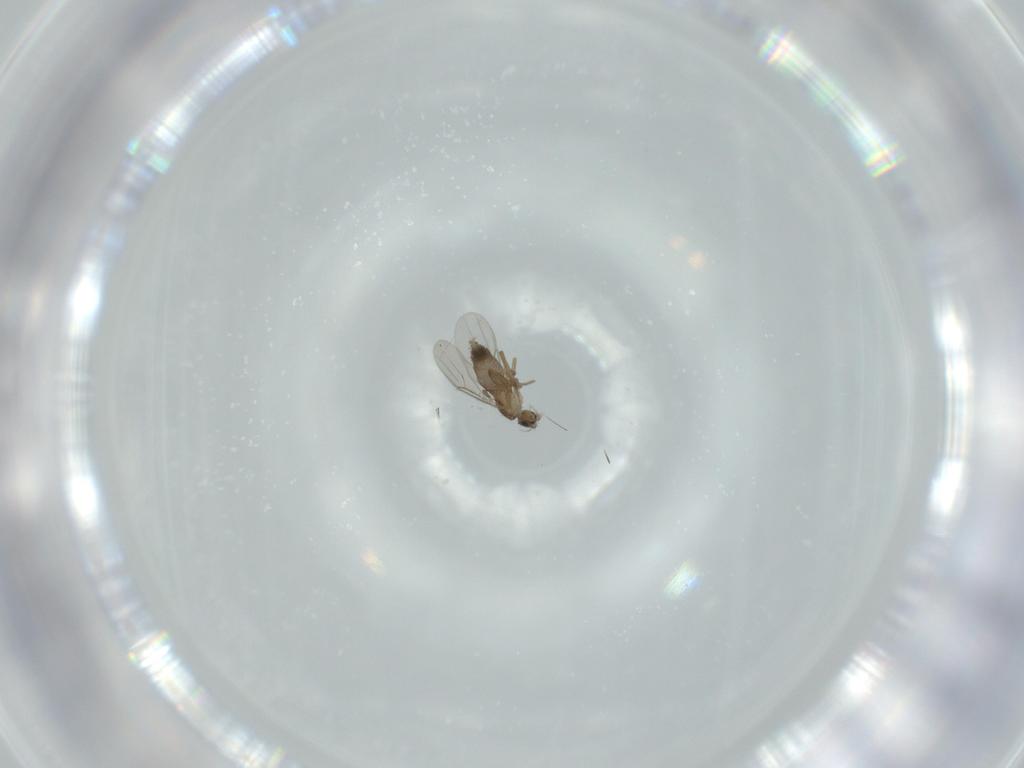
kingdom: Animalia
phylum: Arthropoda
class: Insecta
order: Diptera
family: Phoridae
